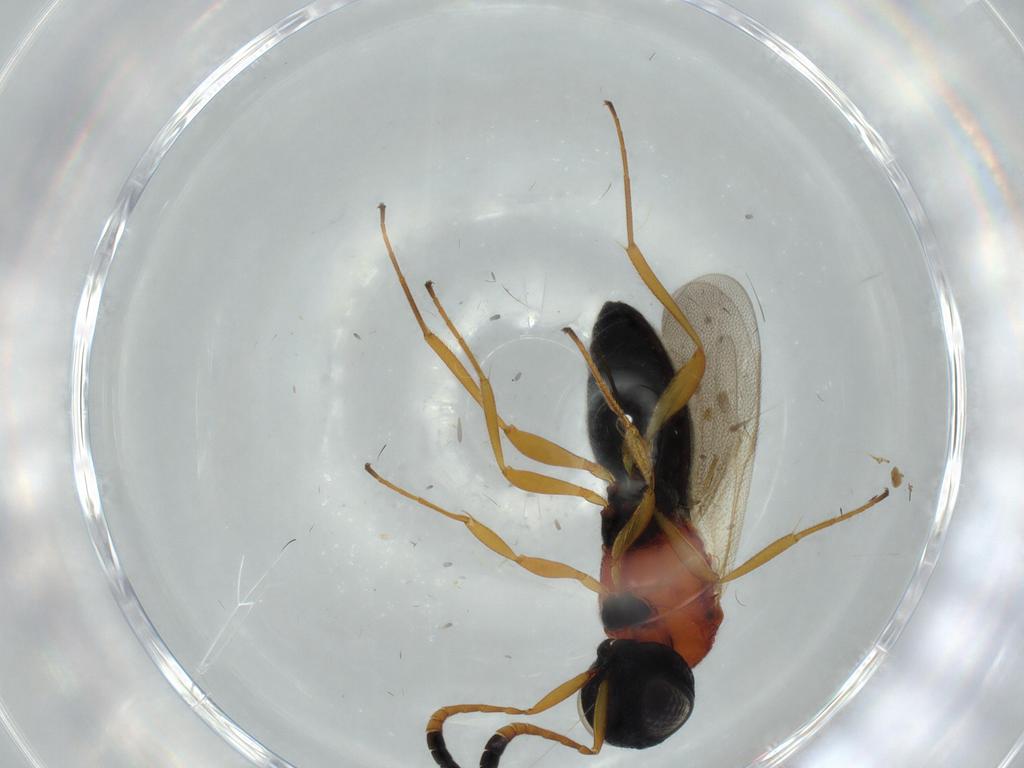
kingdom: Animalia
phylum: Arthropoda
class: Insecta
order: Hymenoptera
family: Scelionidae
